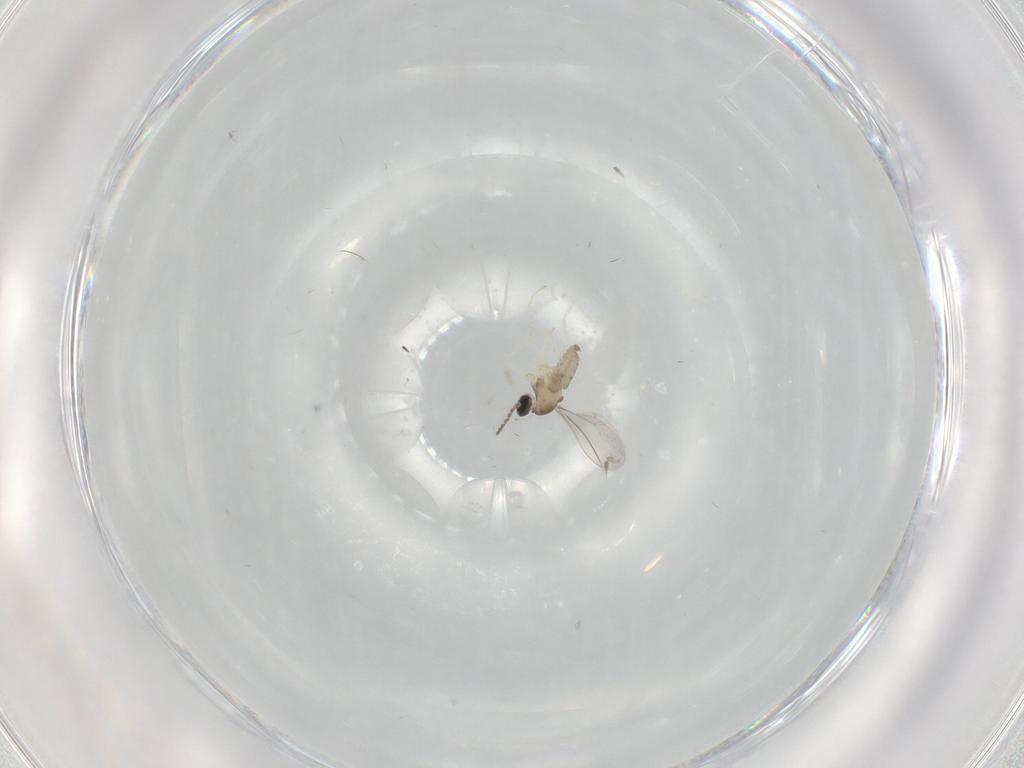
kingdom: Animalia
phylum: Arthropoda
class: Insecta
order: Diptera
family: Cecidomyiidae
